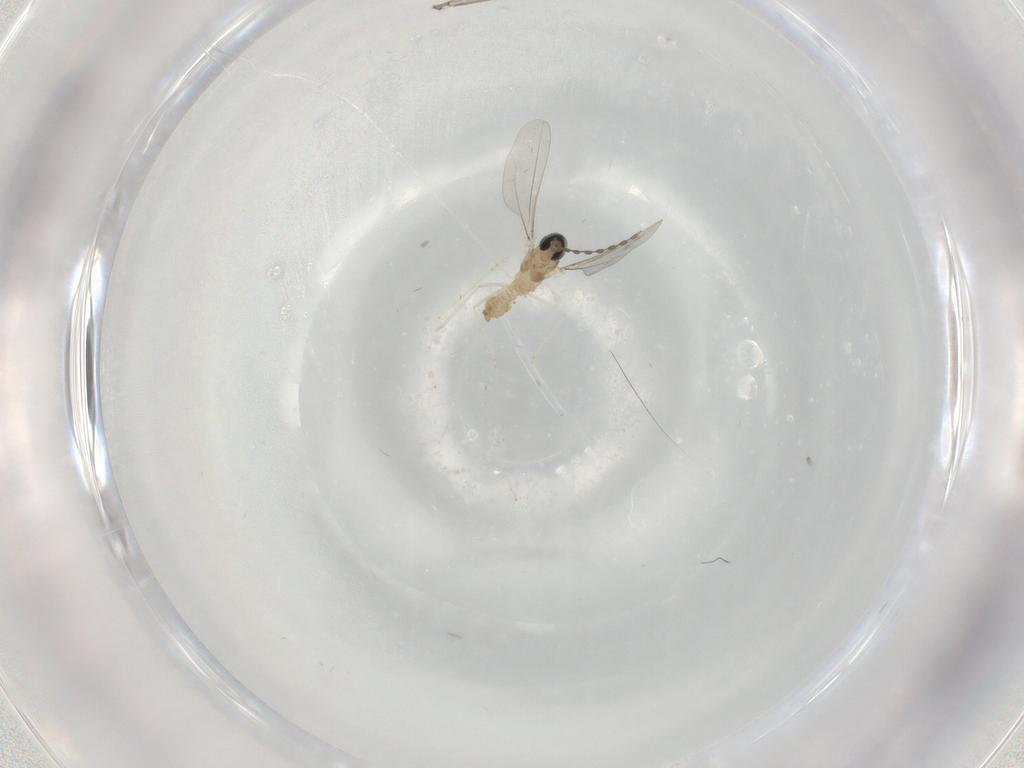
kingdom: Animalia
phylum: Arthropoda
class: Insecta
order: Diptera
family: Cecidomyiidae
